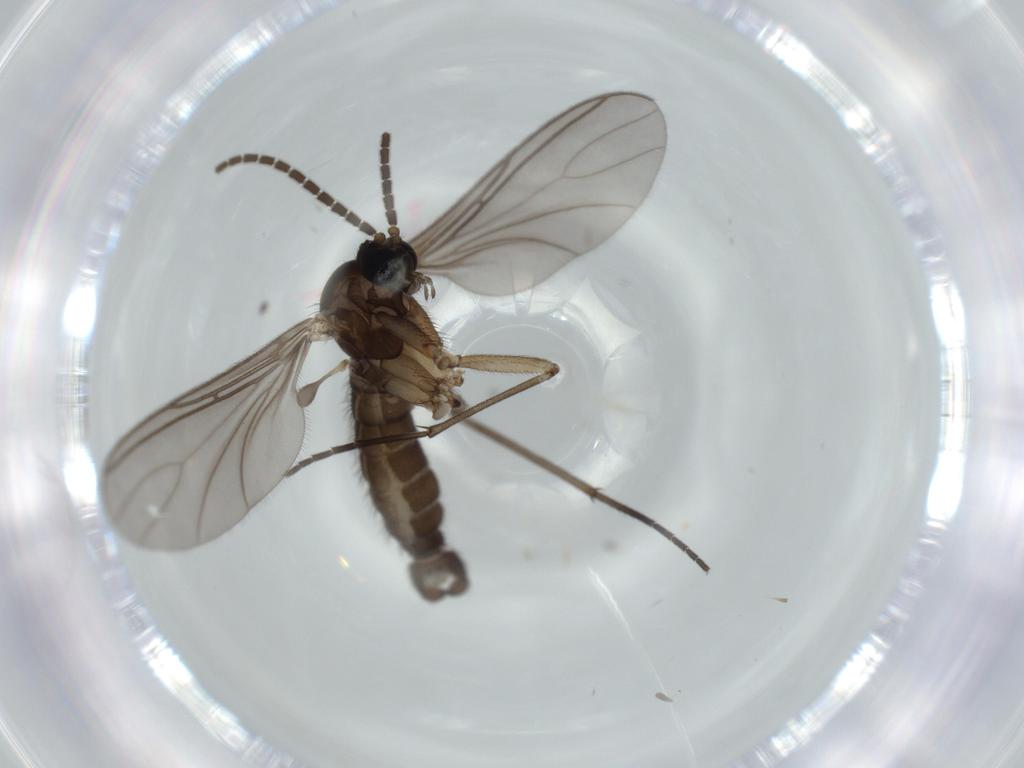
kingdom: Animalia
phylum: Arthropoda
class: Insecta
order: Diptera
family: Sciaridae
